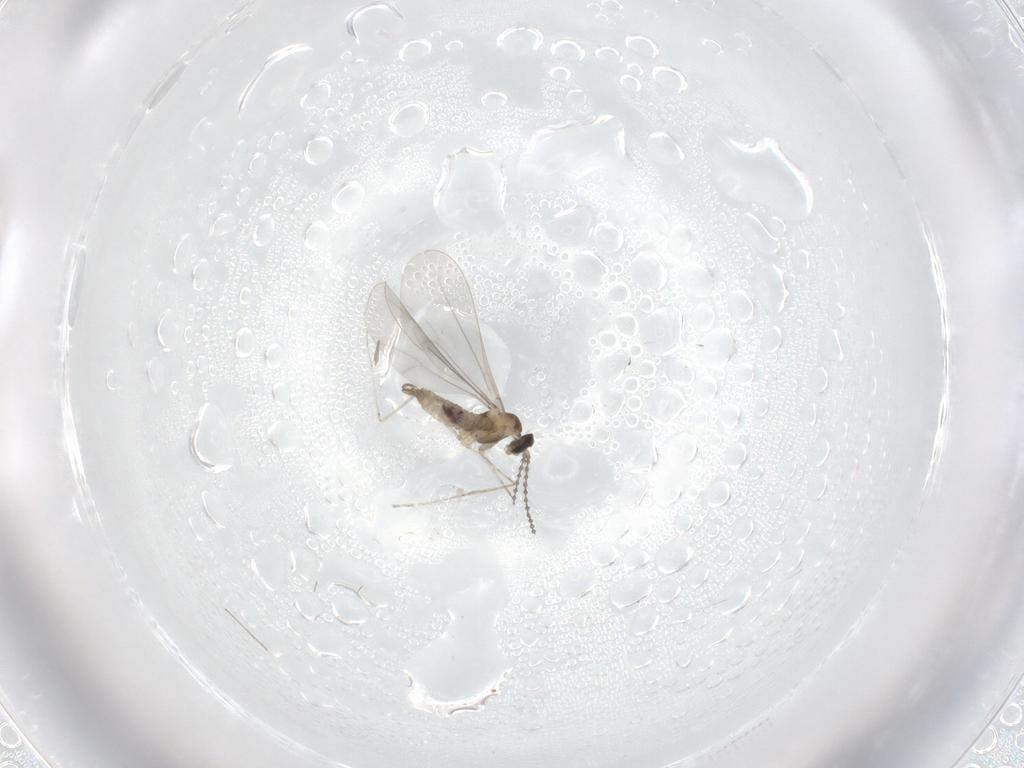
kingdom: Animalia
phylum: Arthropoda
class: Insecta
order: Diptera
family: Cecidomyiidae
